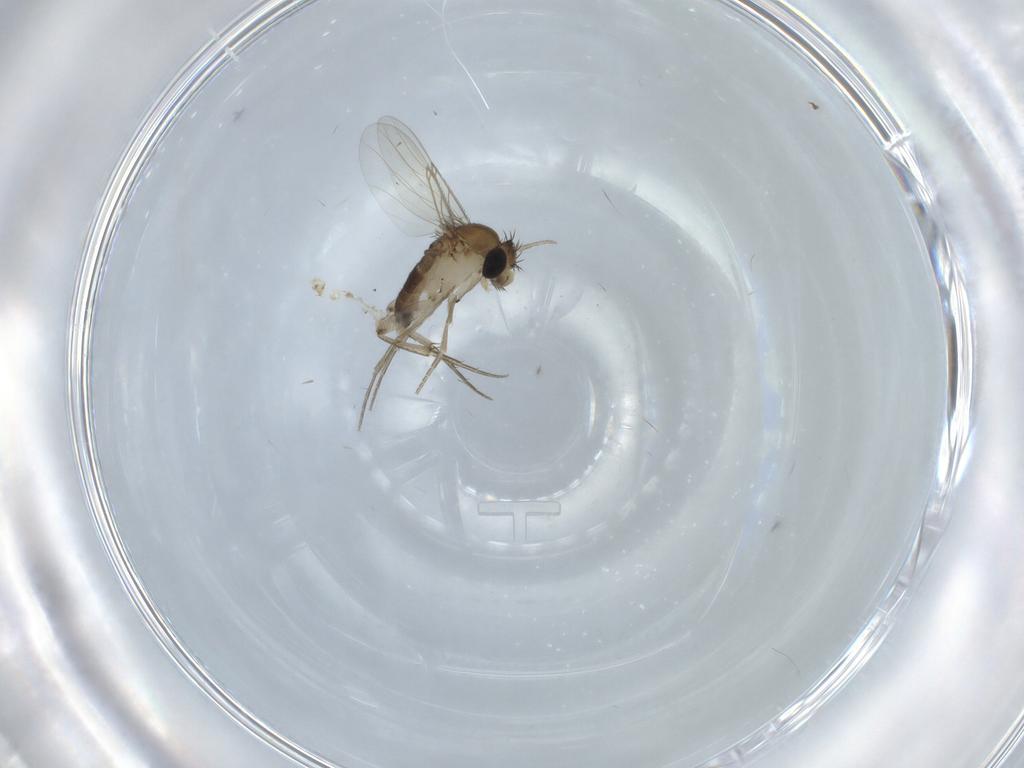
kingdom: Animalia
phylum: Arthropoda
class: Insecta
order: Diptera
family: Phoridae
